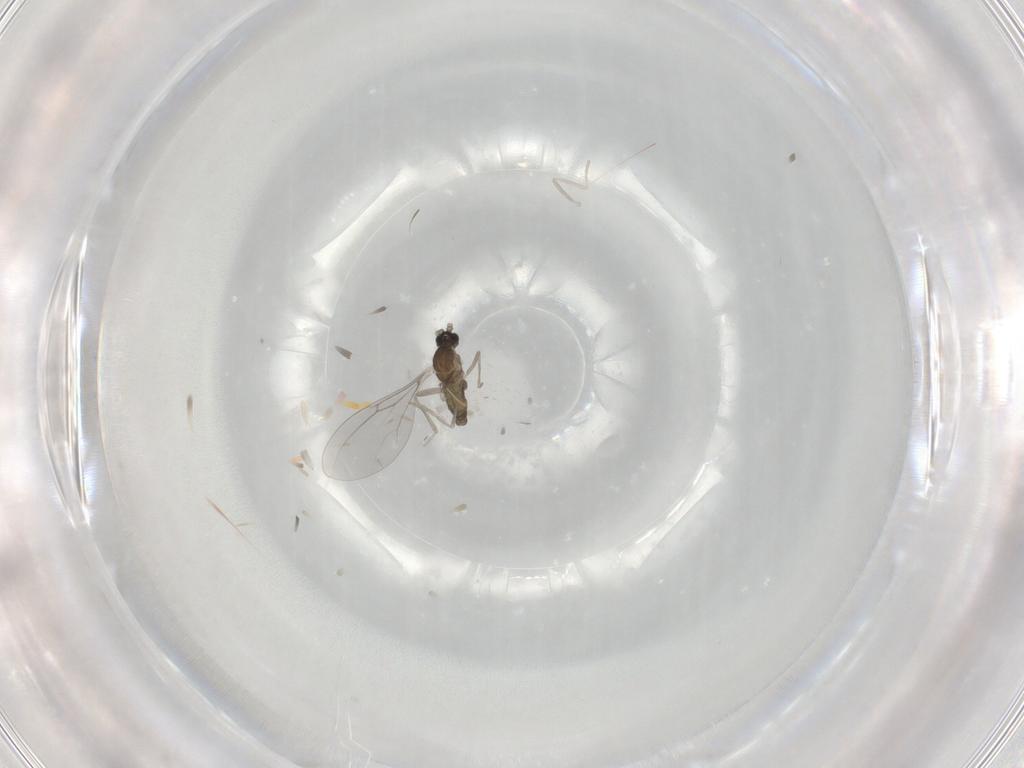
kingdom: Animalia
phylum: Arthropoda
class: Insecta
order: Diptera
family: Cecidomyiidae
